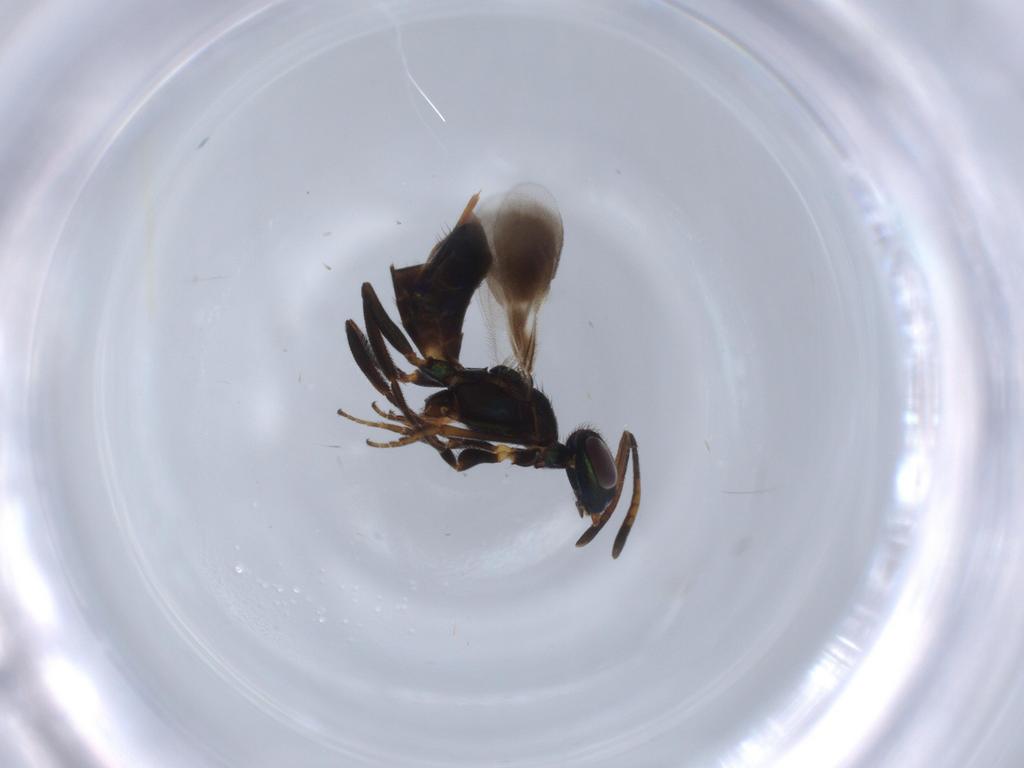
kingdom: Animalia
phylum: Arthropoda
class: Insecta
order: Hymenoptera
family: Eupelmidae
